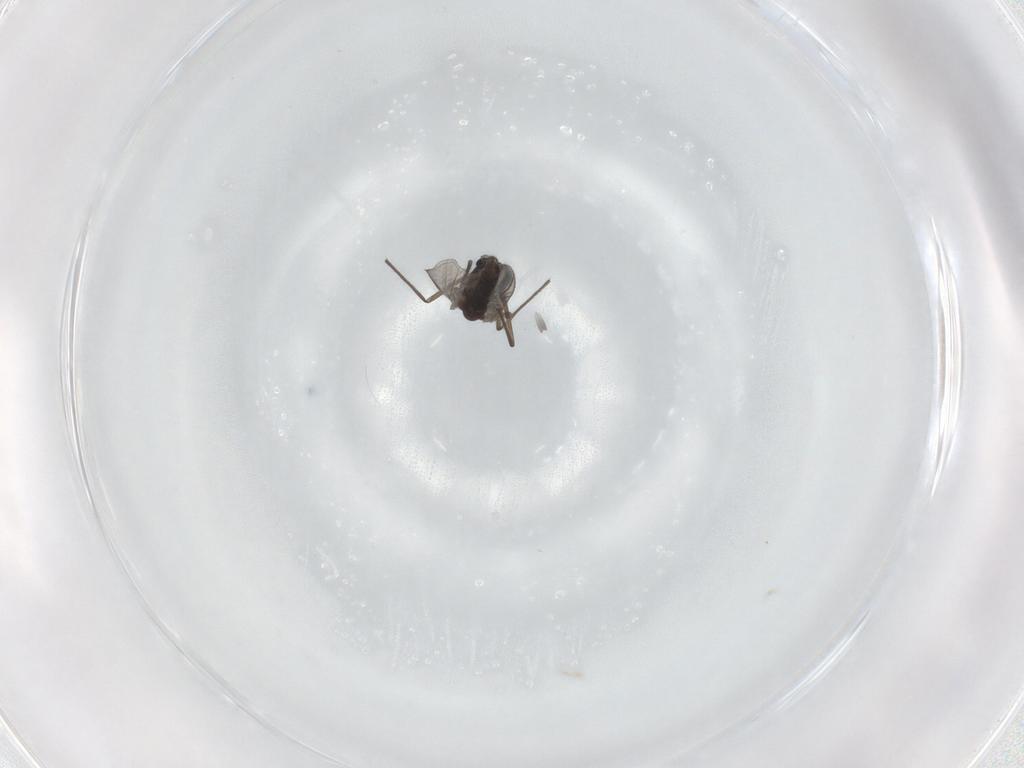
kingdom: Animalia
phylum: Arthropoda
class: Insecta
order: Diptera
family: Chironomidae
